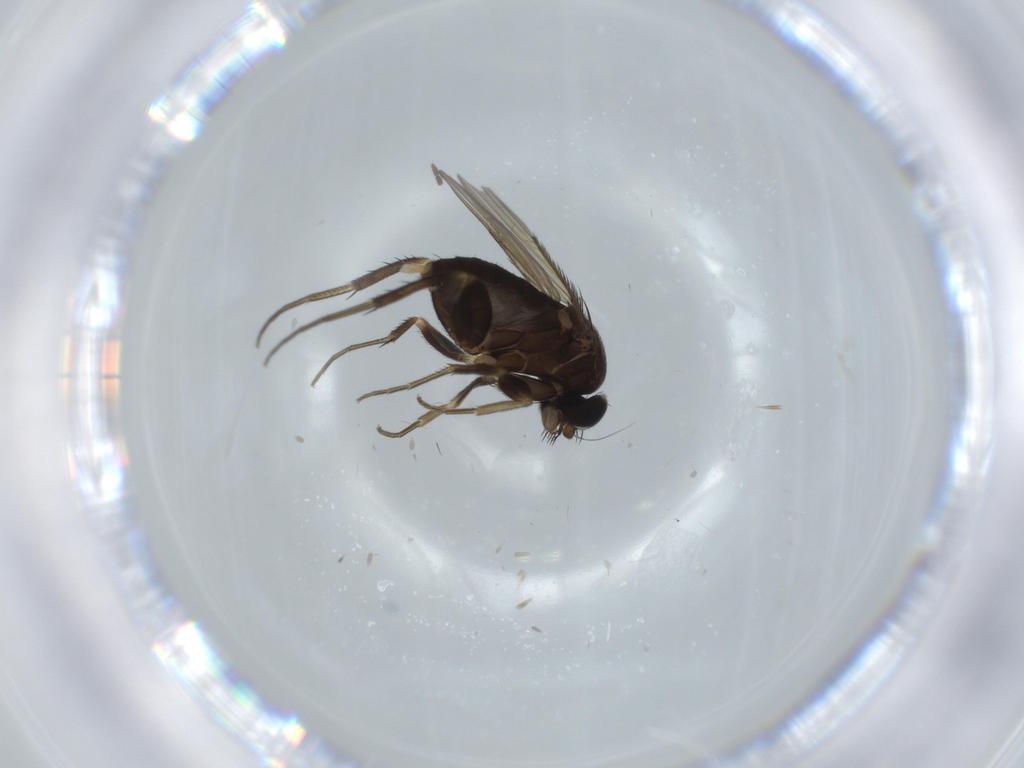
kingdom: Animalia
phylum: Arthropoda
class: Insecta
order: Diptera
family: Phoridae
